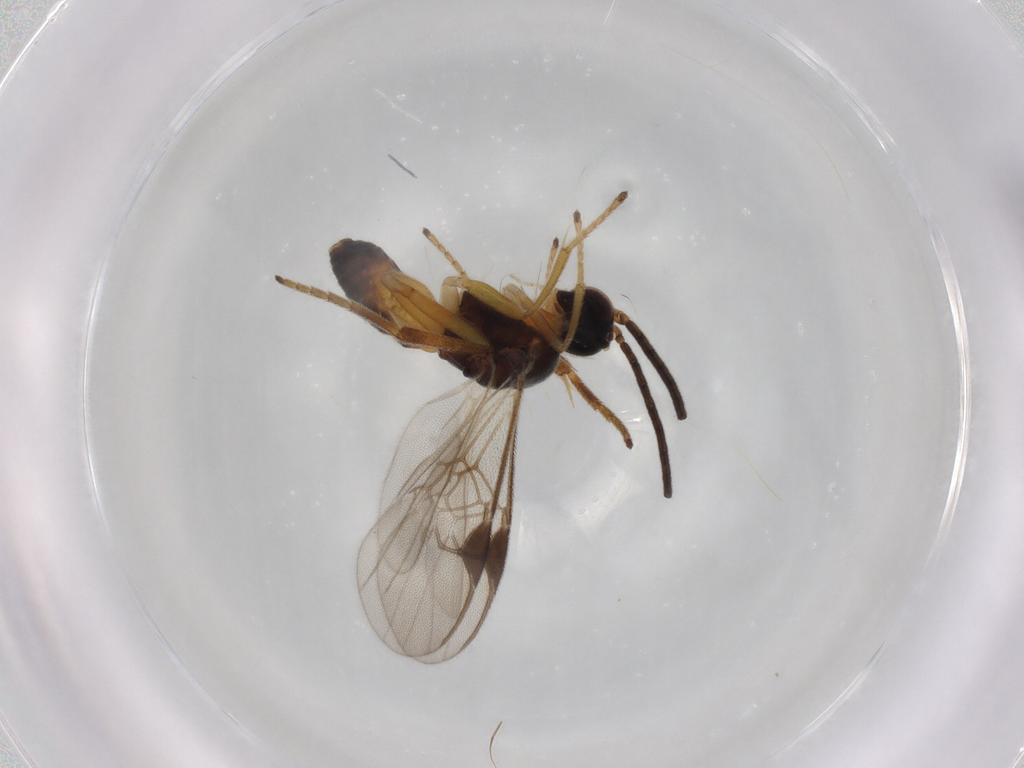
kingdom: Animalia
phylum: Arthropoda
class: Insecta
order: Hymenoptera
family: Braconidae
